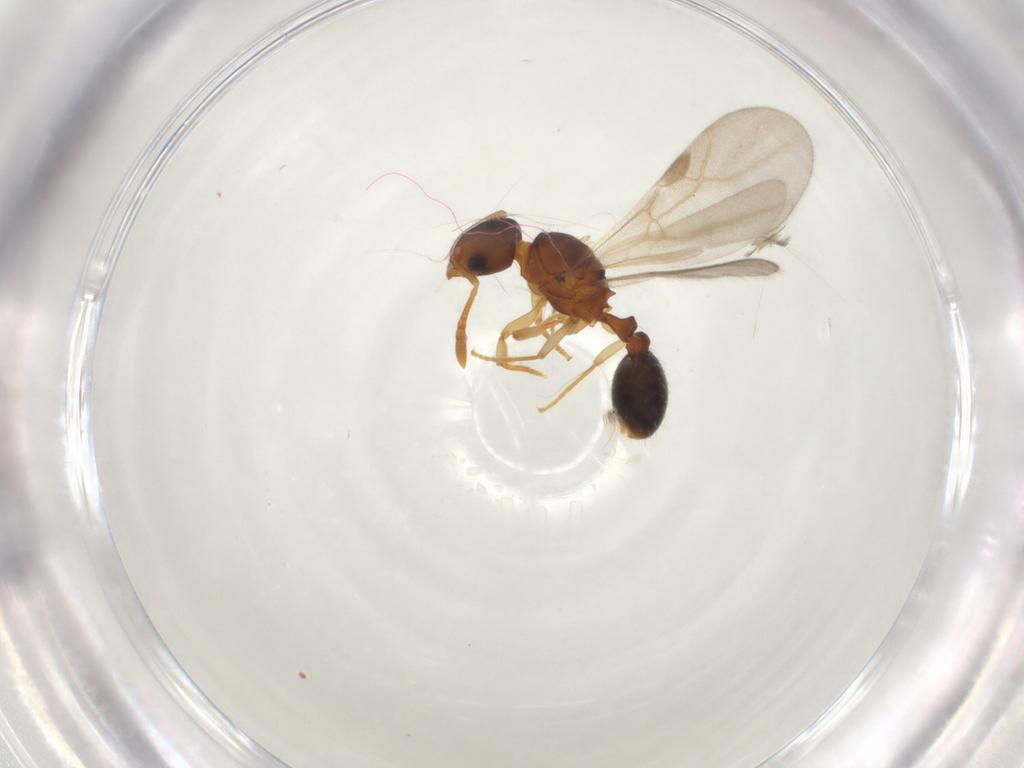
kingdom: Animalia
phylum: Arthropoda
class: Insecta
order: Hymenoptera
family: Formicidae
